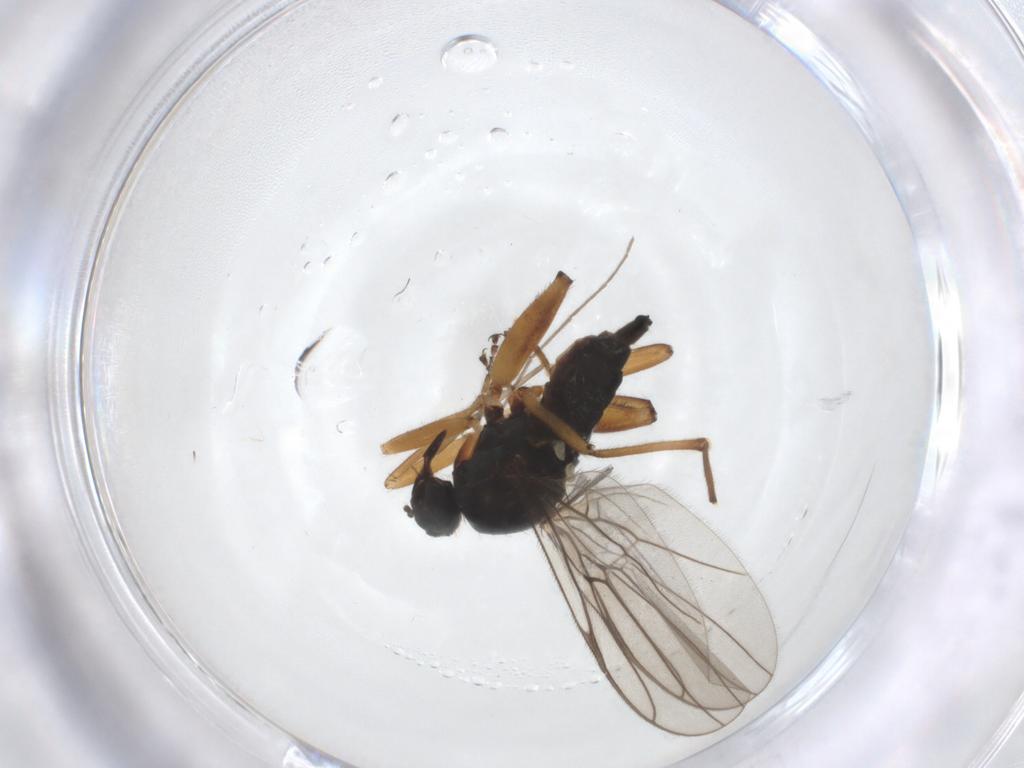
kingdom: Animalia
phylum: Arthropoda
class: Insecta
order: Diptera
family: Hybotidae
